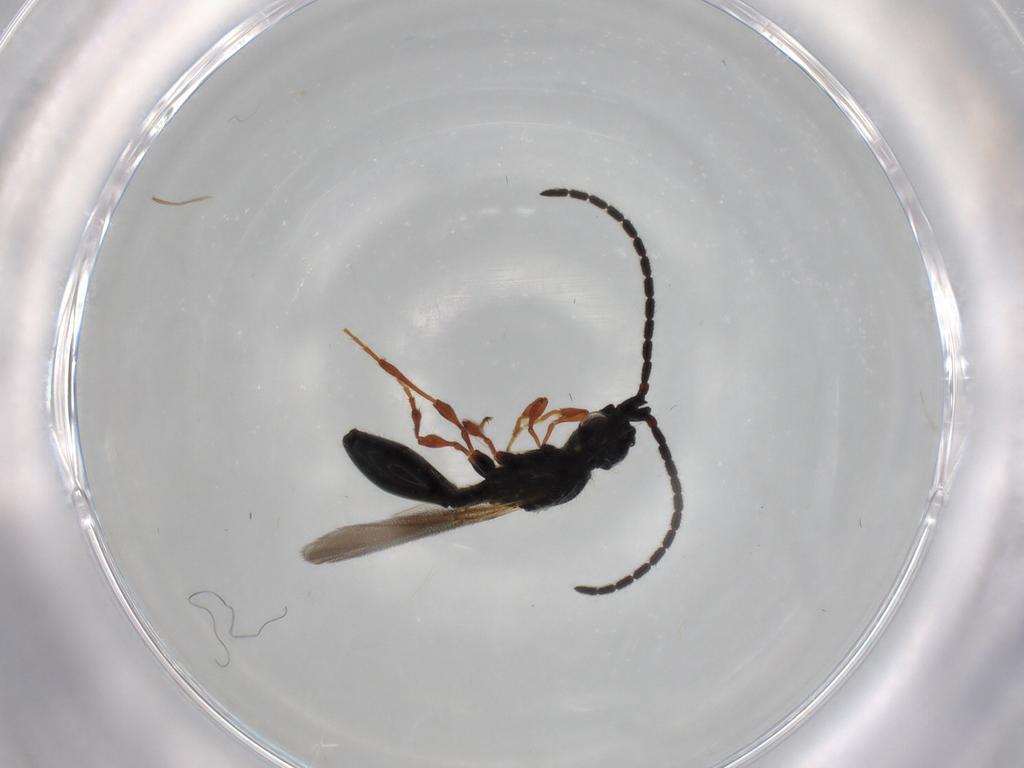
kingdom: Animalia
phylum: Arthropoda
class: Insecta
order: Hymenoptera
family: Diapriidae
